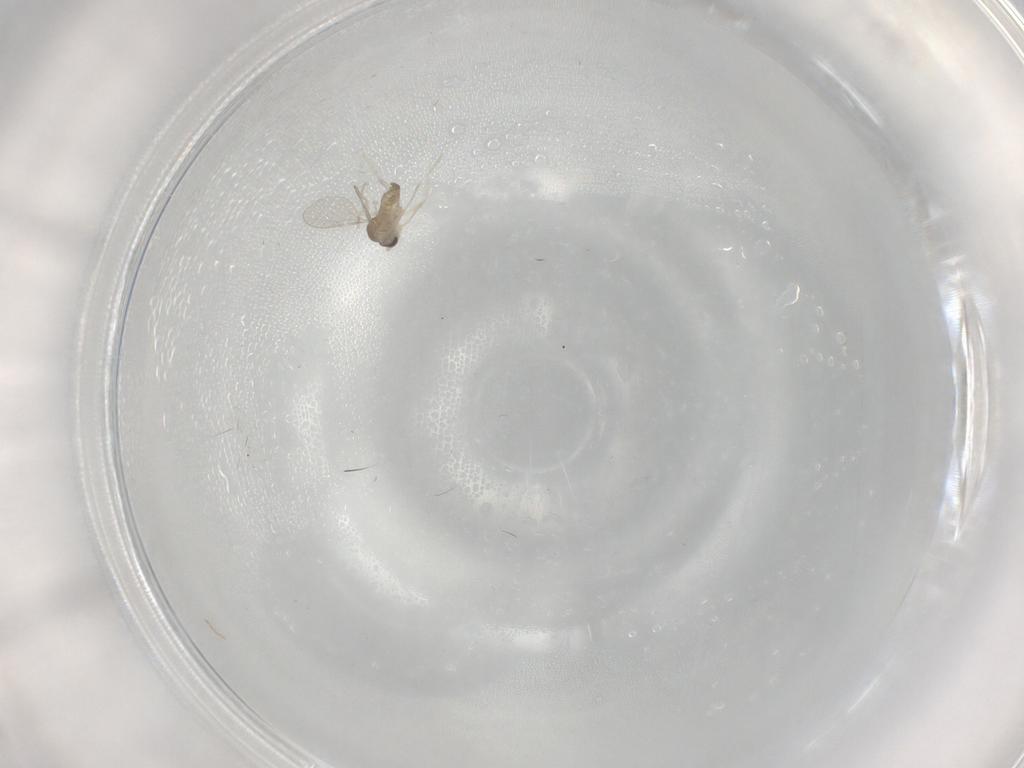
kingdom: Animalia
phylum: Arthropoda
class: Insecta
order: Diptera
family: Cecidomyiidae
